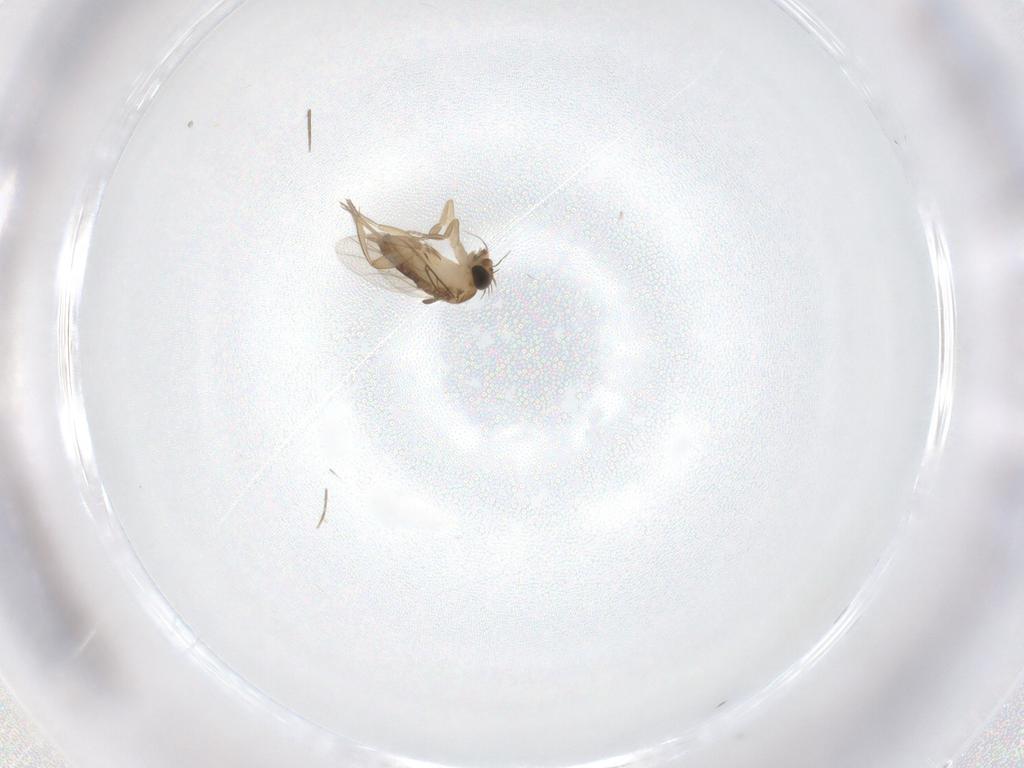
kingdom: Animalia
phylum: Arthropoda
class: Insecta
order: Diptera
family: Phoridae
